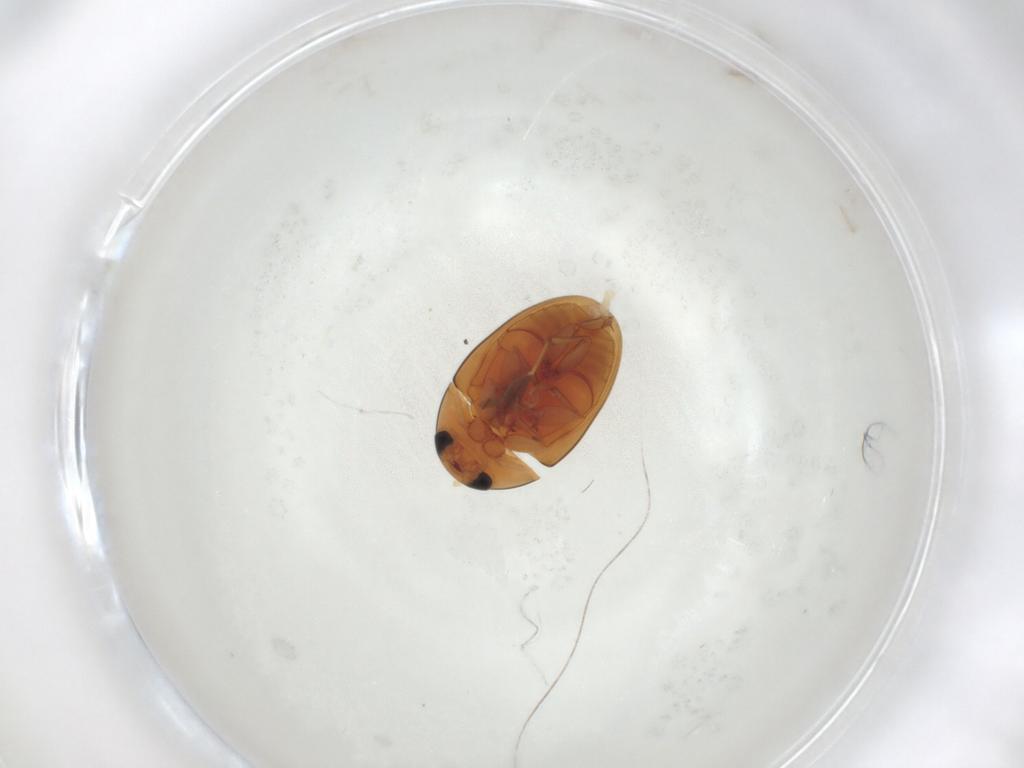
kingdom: Animalia
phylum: Arthropoda
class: Insecta
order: Coleoptera
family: Phalacridae
